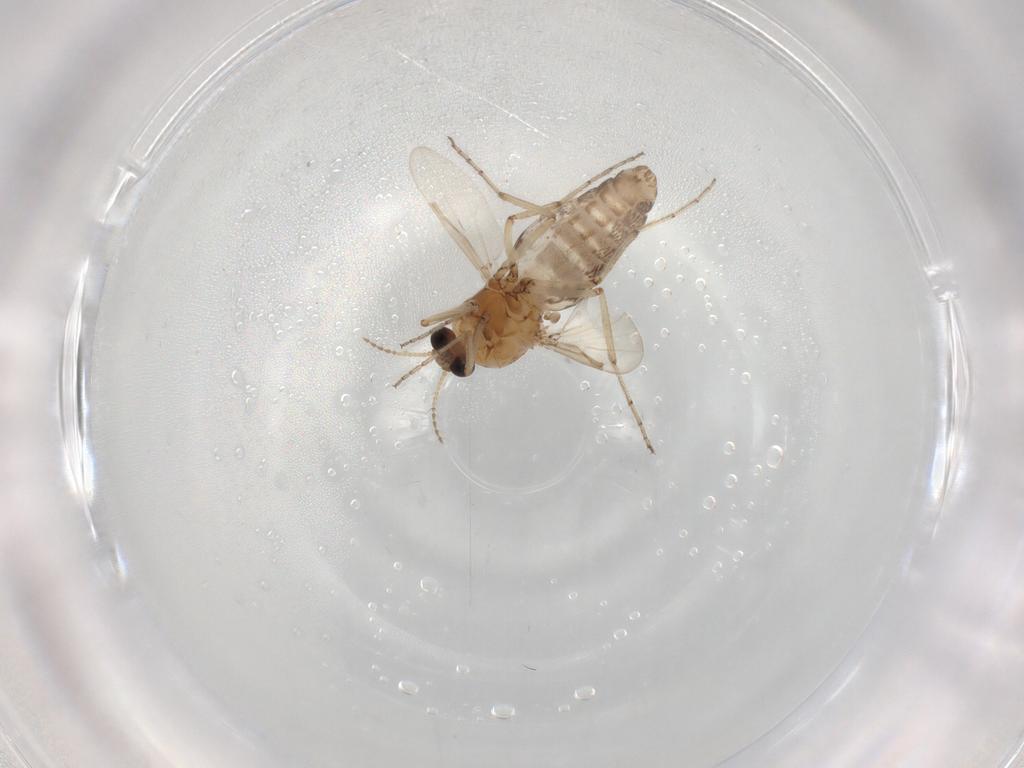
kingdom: Animalia
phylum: Arthropoda
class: Insecta
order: Diptera
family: Ceratopogonidae
